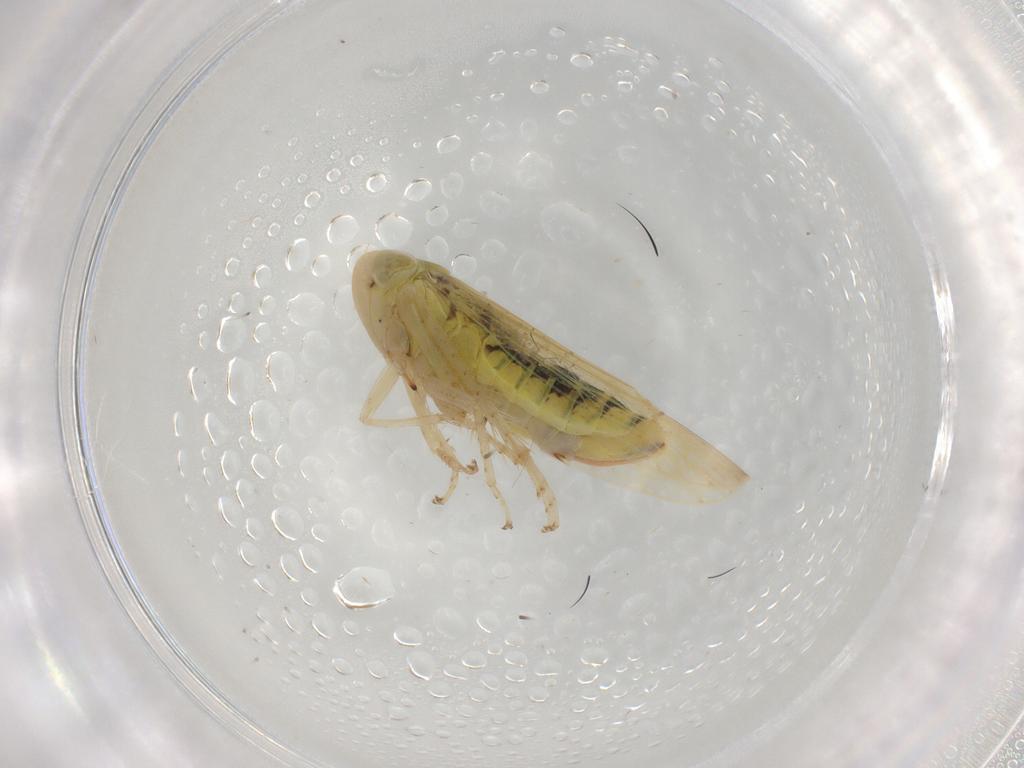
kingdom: Animalia
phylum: Arthropoda
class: Insecta
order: Hemiptera
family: Cicadellidae
